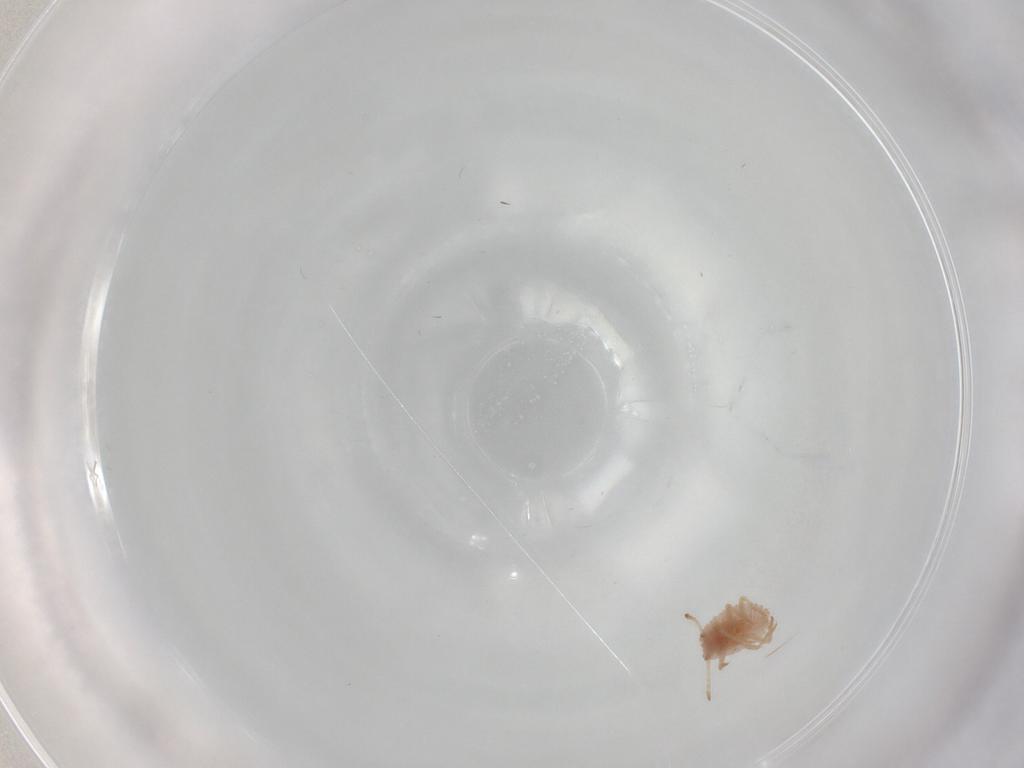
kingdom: Animalia
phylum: Arthropoda
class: Insecta
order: Hemiptera
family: Coccoidea_incertae_sedis
